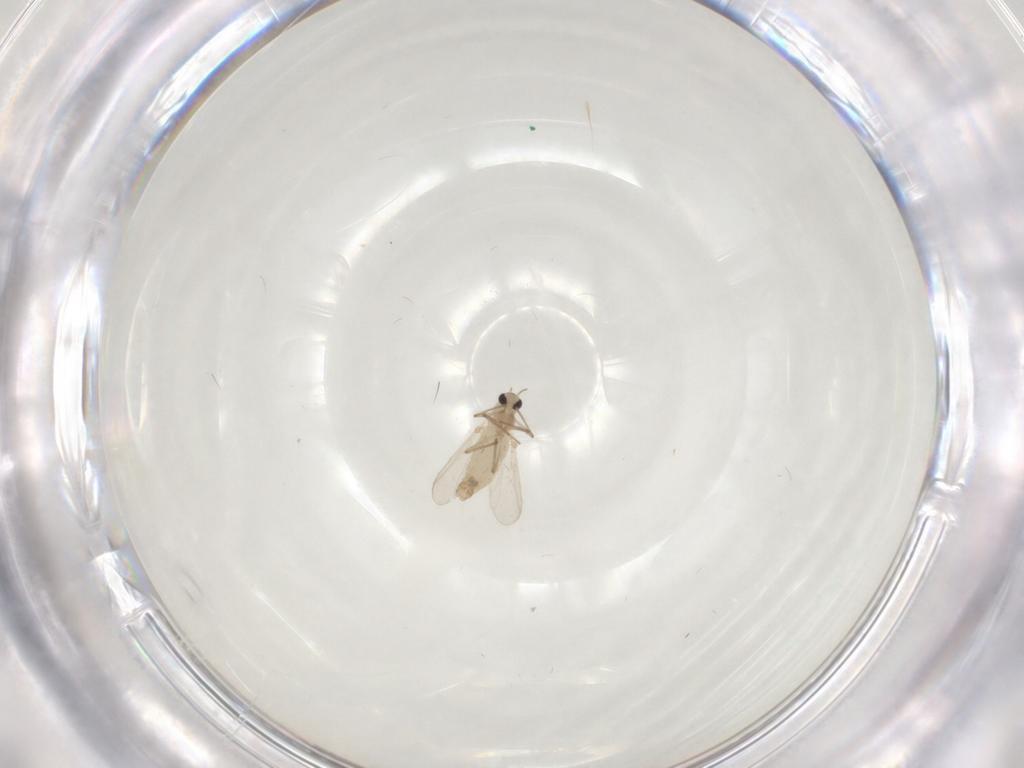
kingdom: Animalia
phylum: Arthropoda
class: Insecta
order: Diptera
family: Chironomidae
